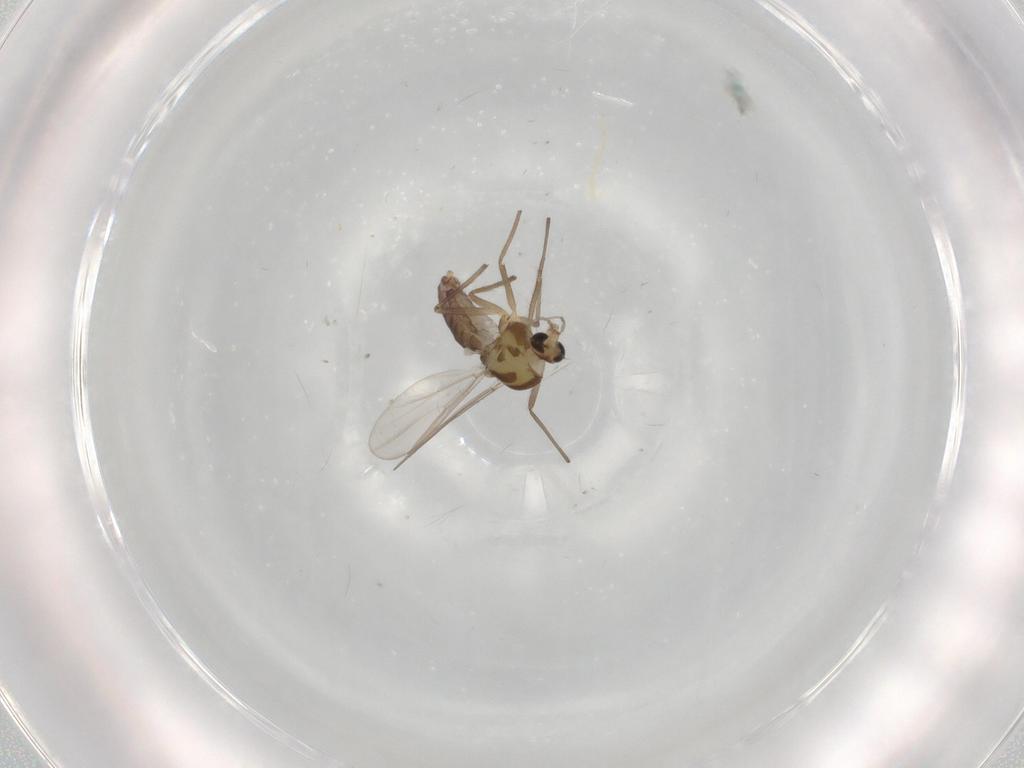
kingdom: Animalia
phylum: Arthropoda
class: Insecta
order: Diptera
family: Chironomidae
